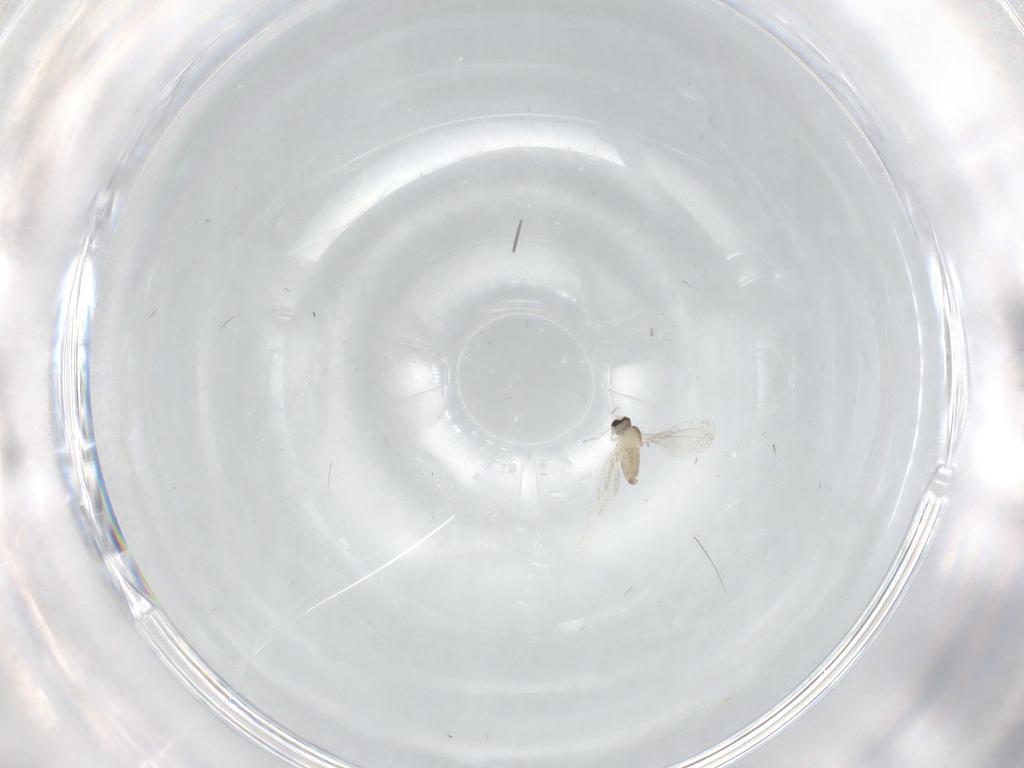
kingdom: Animalia
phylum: Arthropoda
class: Insecta
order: Diptera
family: Cecidomyiidae
